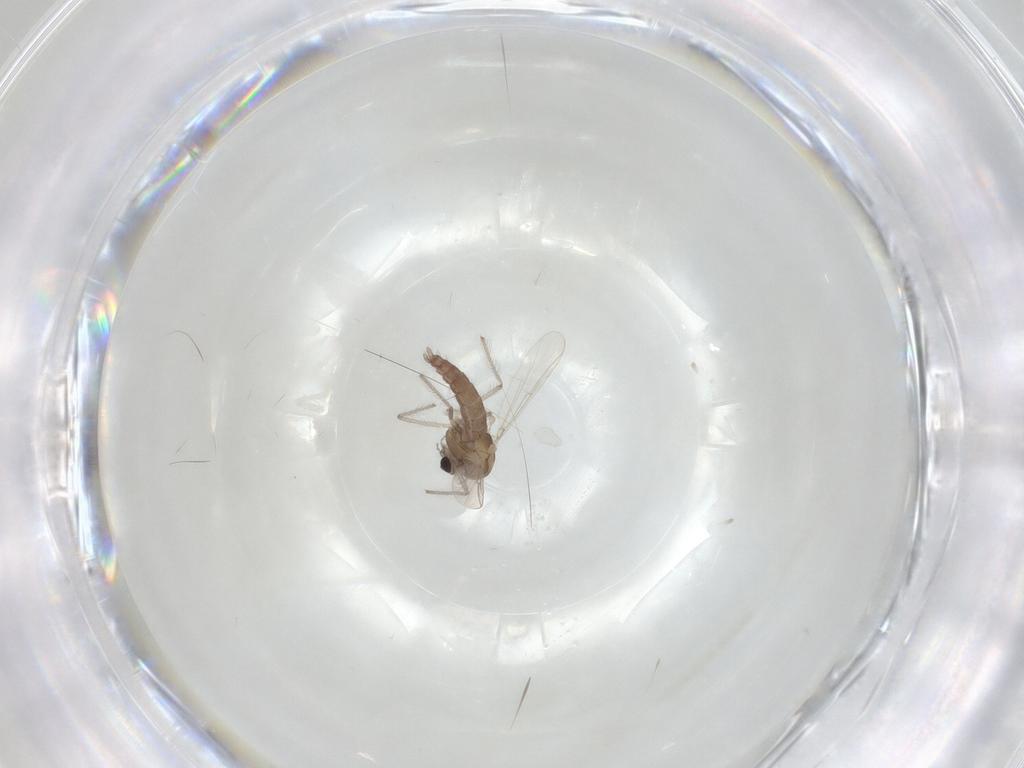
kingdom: Animalia
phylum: Arthropoda
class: Insecta
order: Diptera
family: Chironomidae
